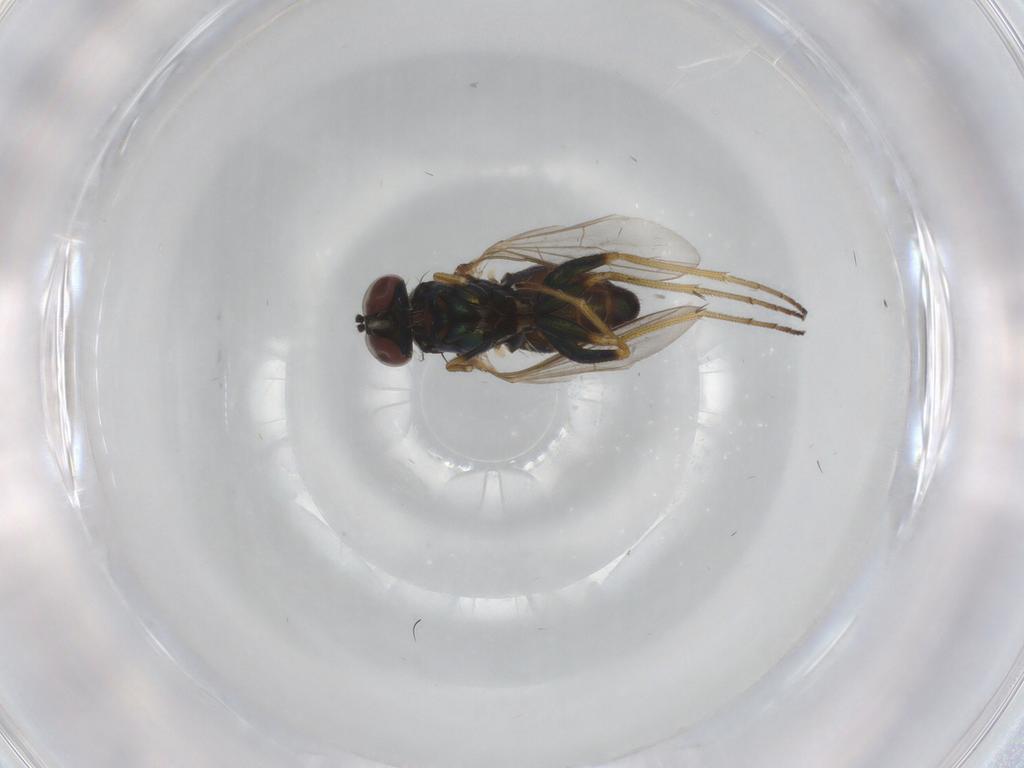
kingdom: Animalia
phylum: Arthropoda
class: Insecta
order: Diptera
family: Dolichopodidae
